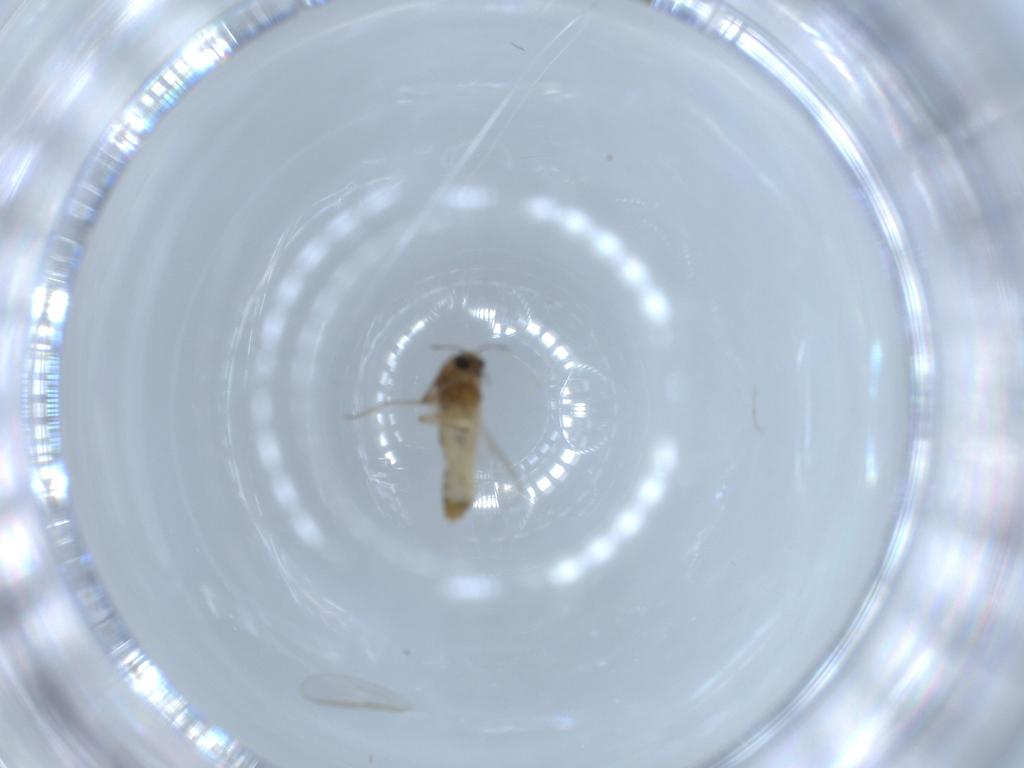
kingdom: Animalia
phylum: Arthropoda
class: Insecta
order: Diptera
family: Chironomidae
